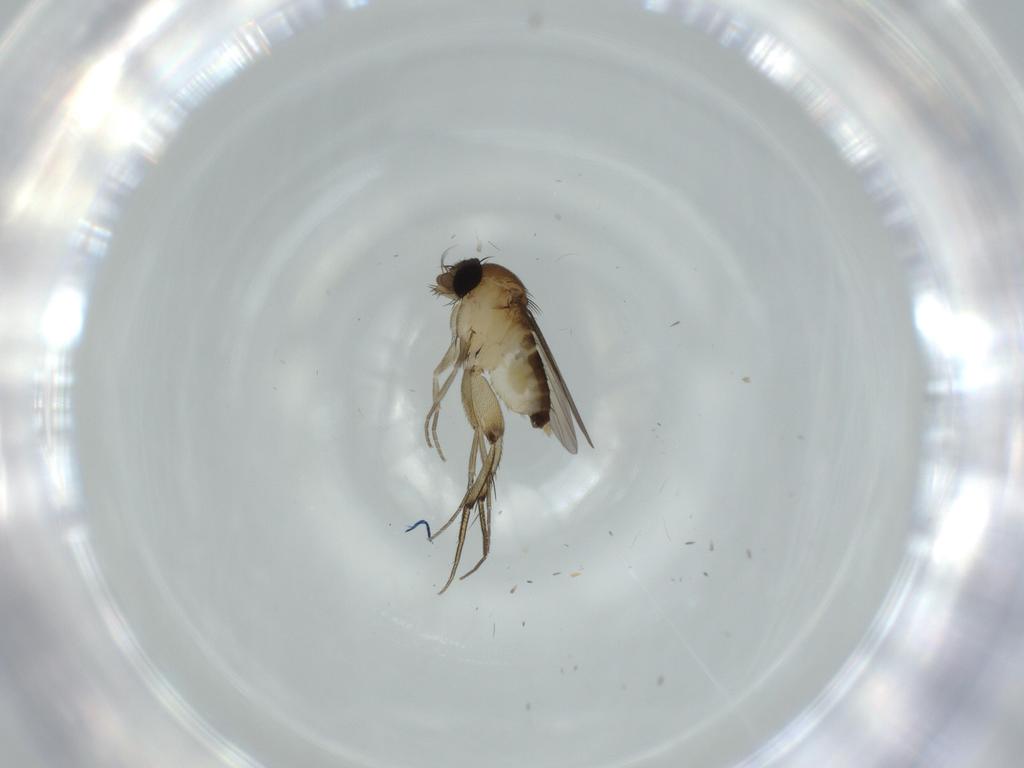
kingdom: Animalia
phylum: Arthropoda
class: Insecta
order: Diptera
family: Phoridae
